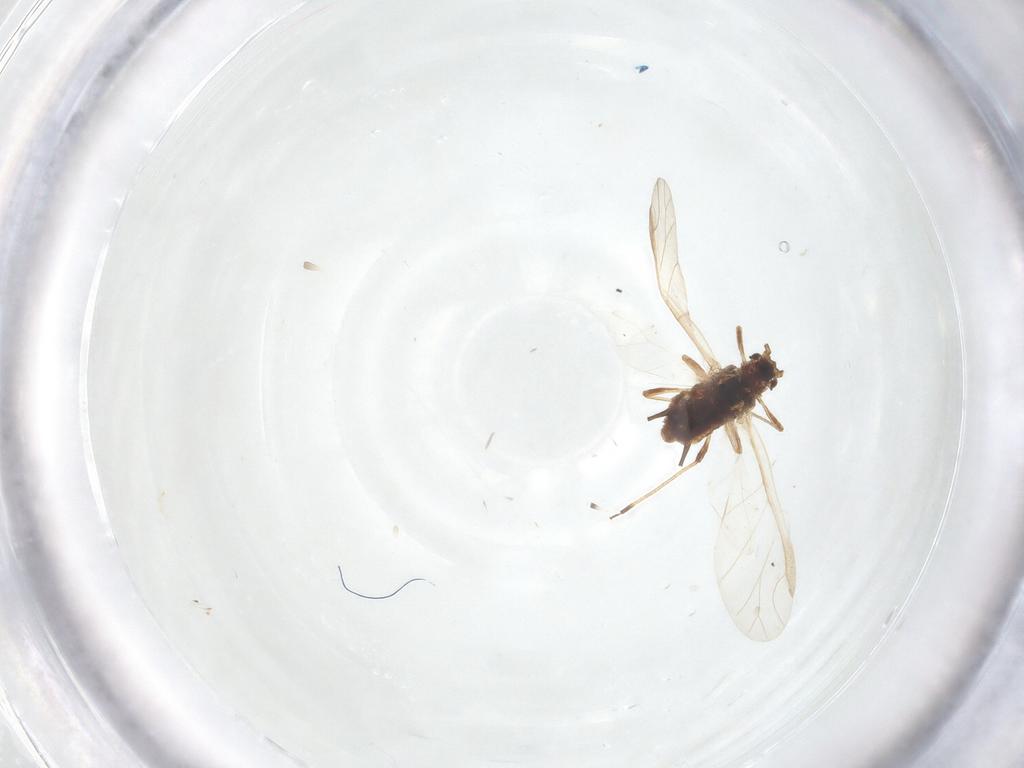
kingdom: Animalia
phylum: Arthropoda
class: Insecta
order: Hemiptera
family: Aphididae
